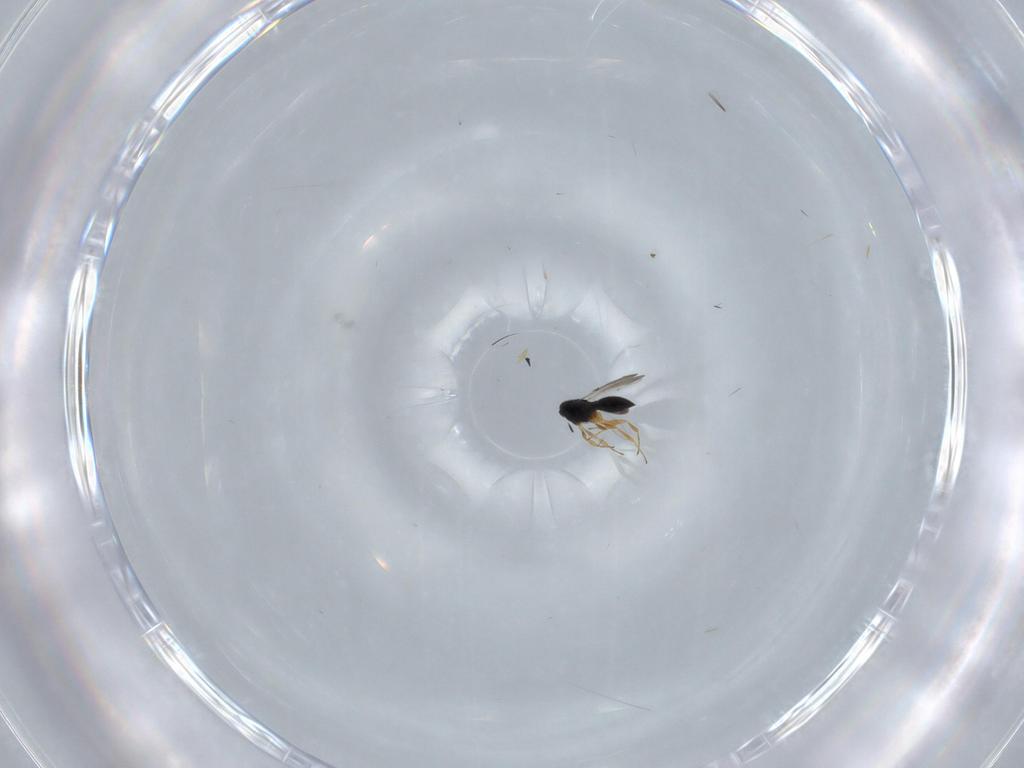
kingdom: Animalia
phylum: Arthropoda
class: Insecta
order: Hymenoptera
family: Scelionidae
